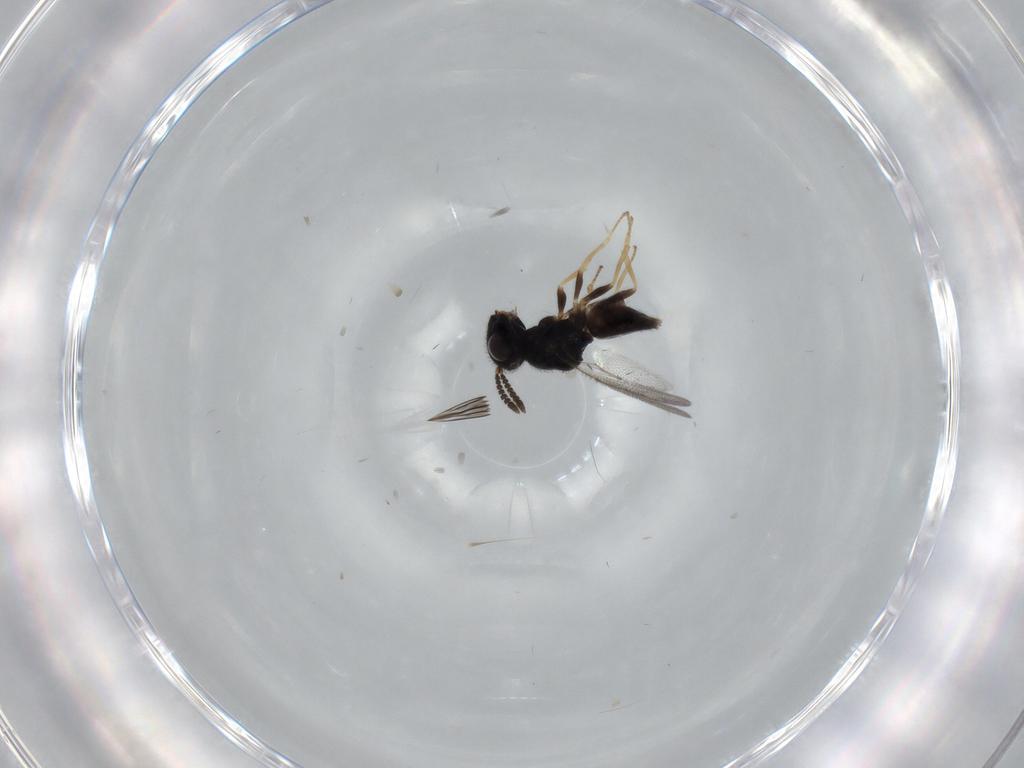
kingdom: Animalia
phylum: Arthropoda
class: Insecta
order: Hymenoptera
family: Pteromalidae
